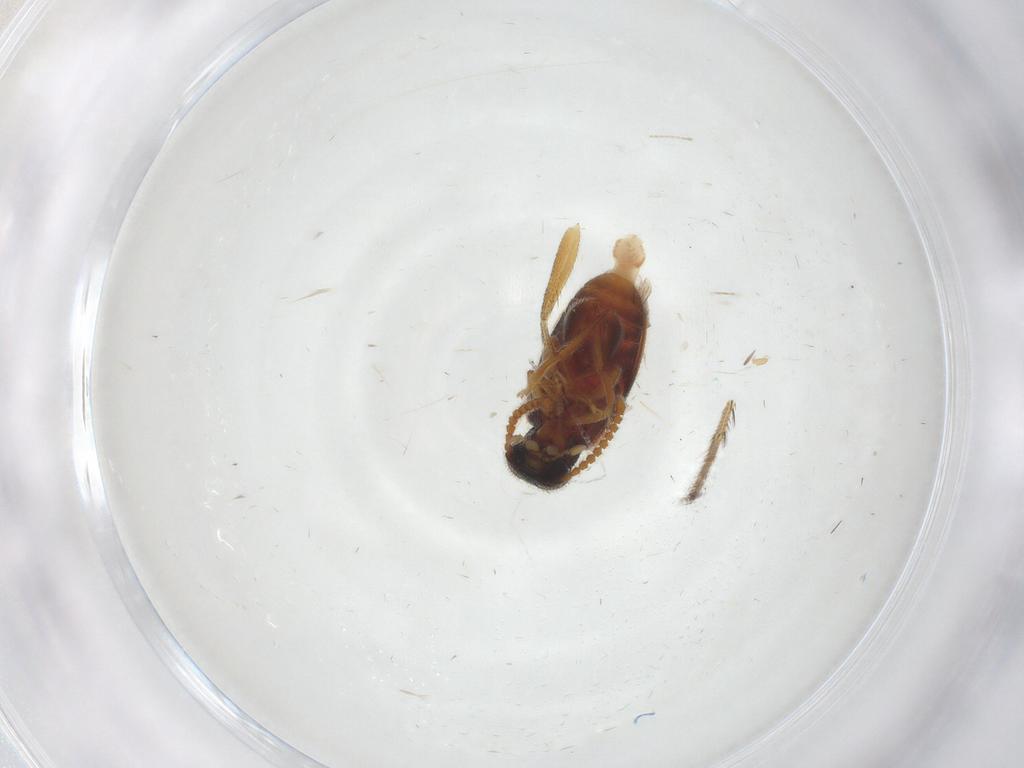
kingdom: Animalia
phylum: Arthropoda
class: Insecta
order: Coleoptera
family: Aderidae
